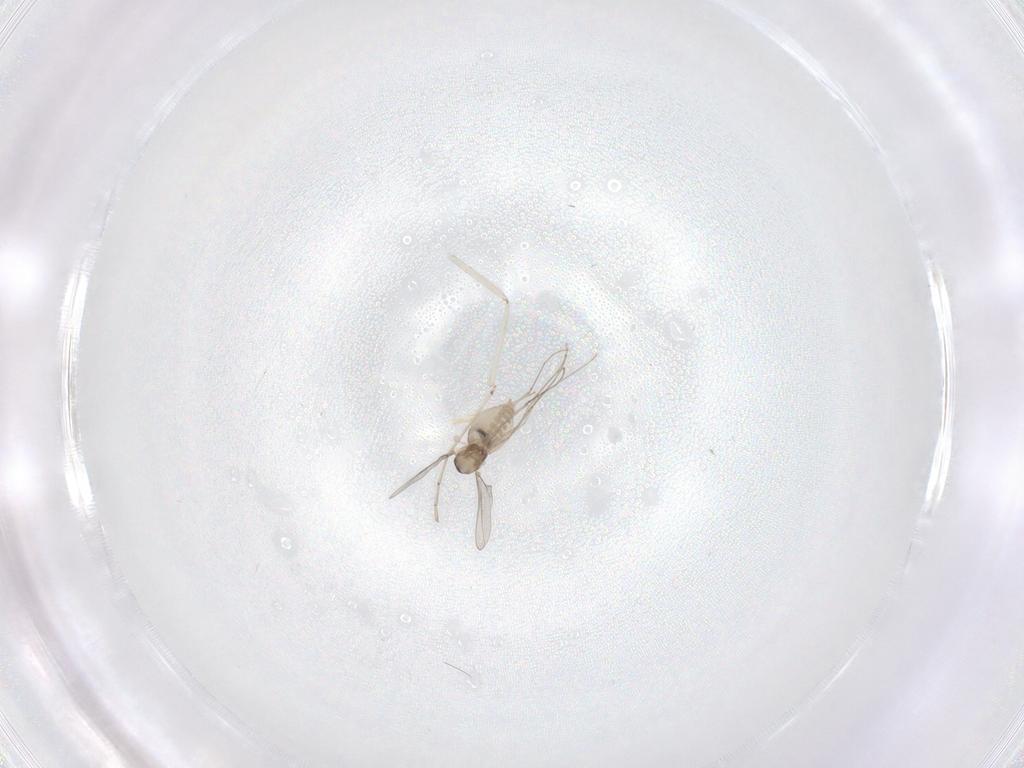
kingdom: Animalia
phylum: Arthropoda
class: Insecta
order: Diptera
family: Cecidomyiidae
